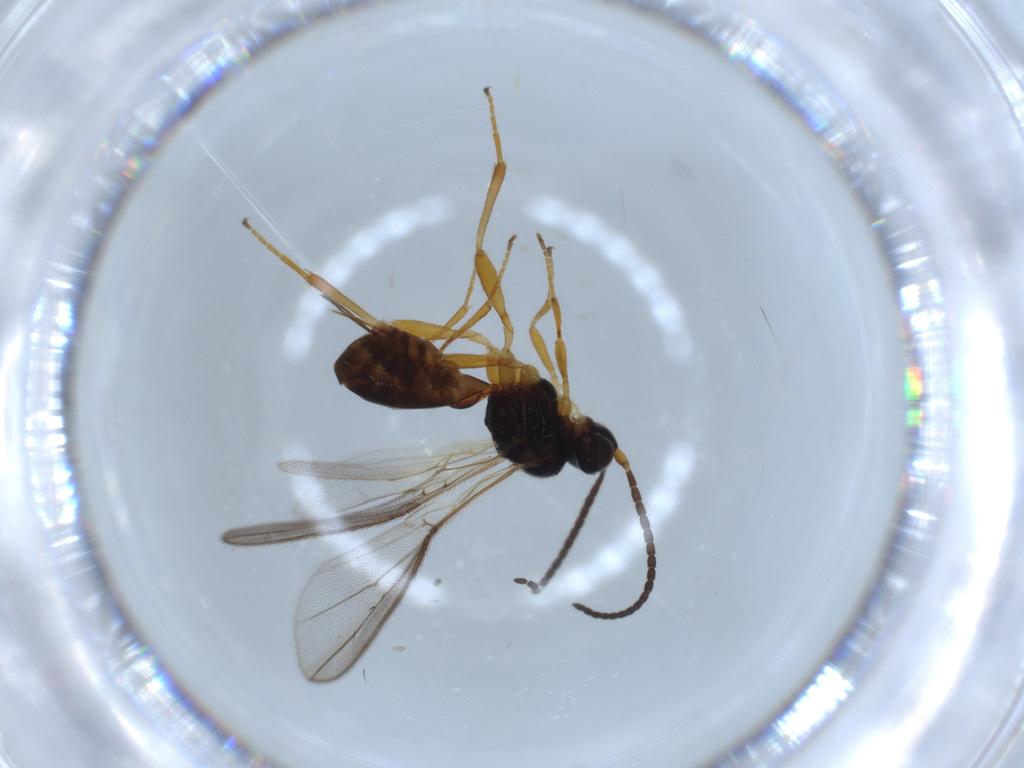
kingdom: Animalia
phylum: Arthropoda
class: Insecta
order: Hymenoptera
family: Braconidae
